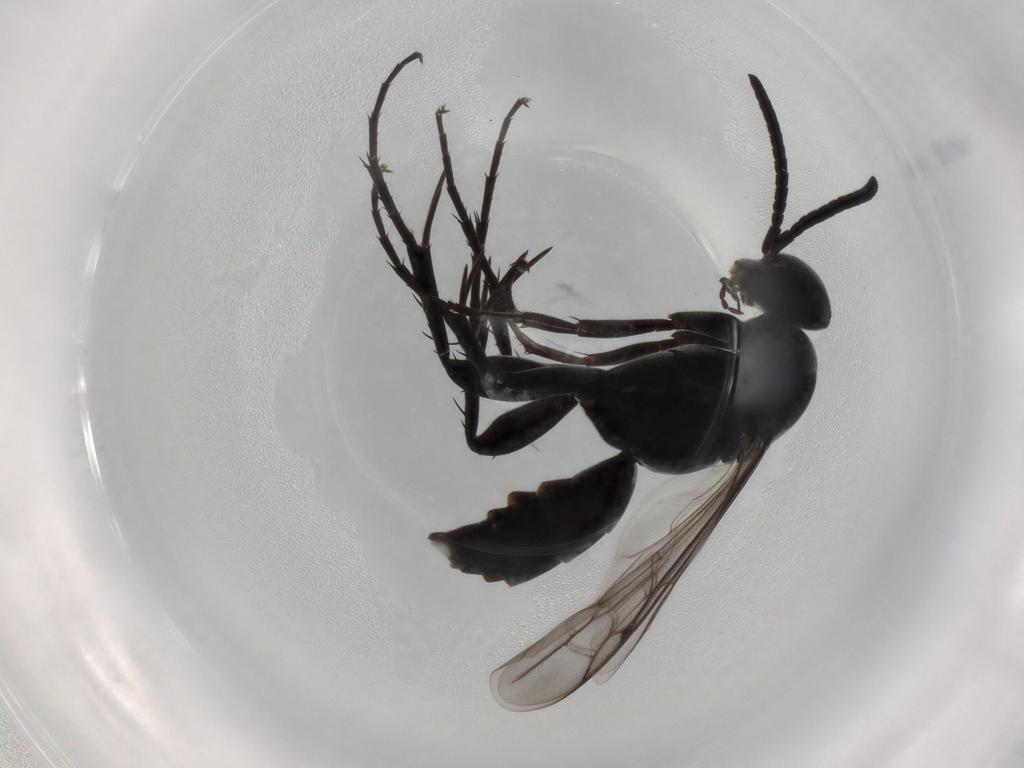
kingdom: Animalia
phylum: Arthropoda
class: Insecta
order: Hymenoptera
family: Pompilidae
